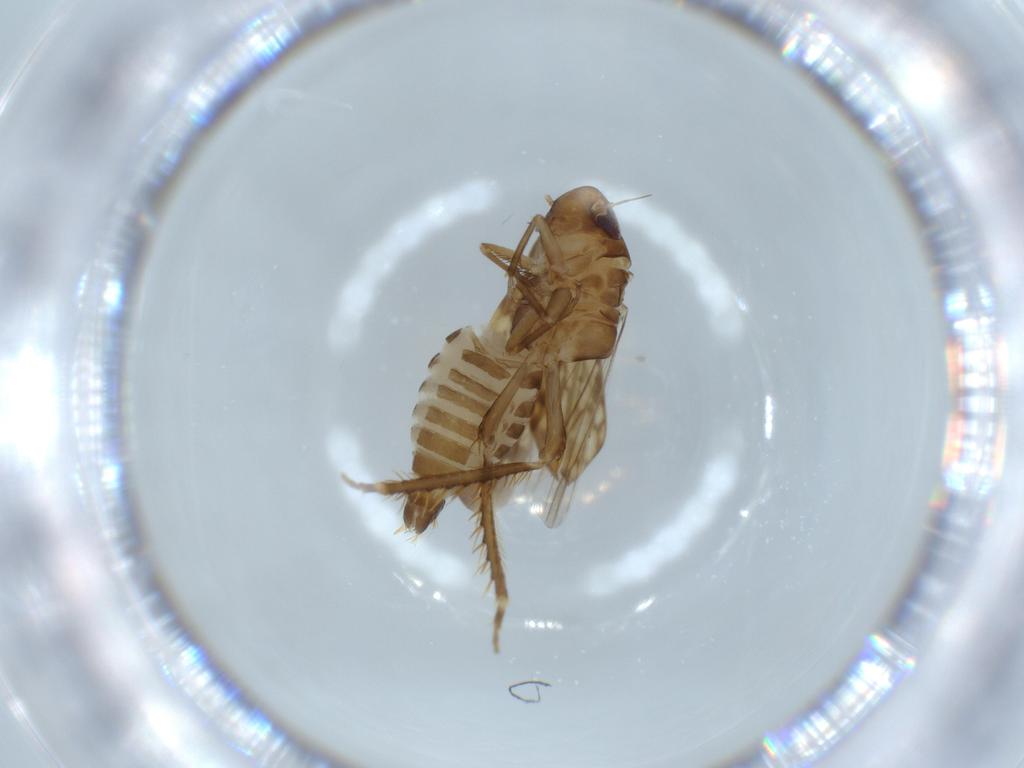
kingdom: Animalia
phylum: Arthropoda
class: Insecta
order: Hemiptera
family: Cicadellidae
